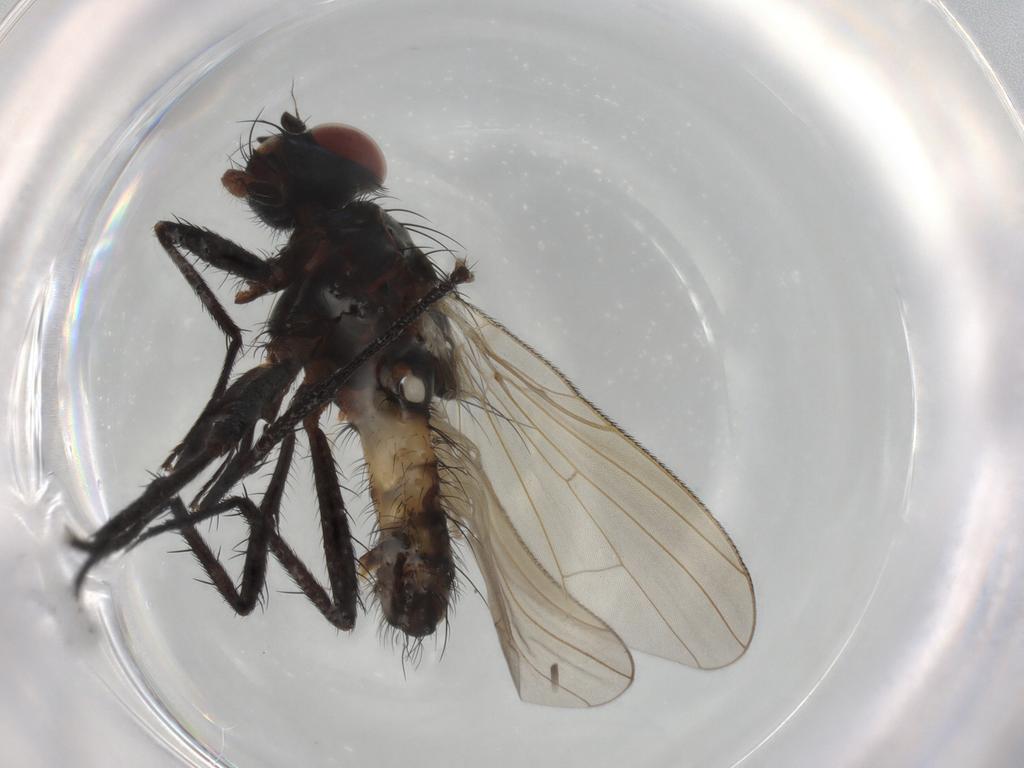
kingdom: Animalia
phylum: Arthropoda
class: Insecta
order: Diptera
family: Anthomyiidae
